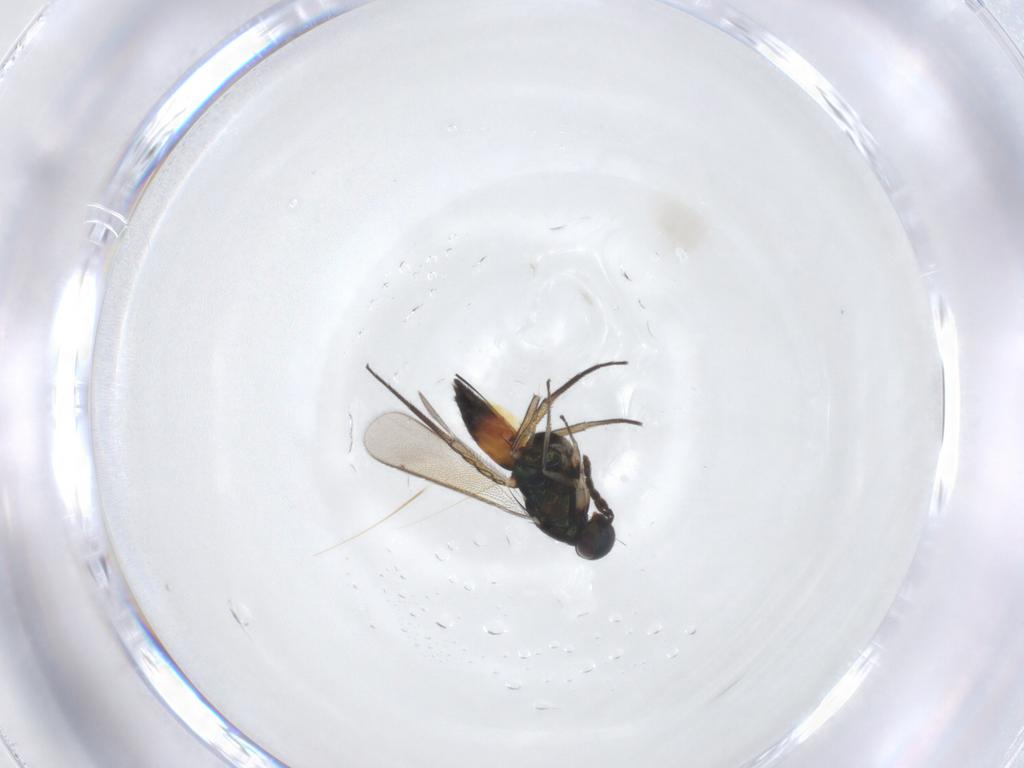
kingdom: Animalia
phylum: Arthropoda
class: Insecta
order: Hymenoptera
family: Eulophidae
